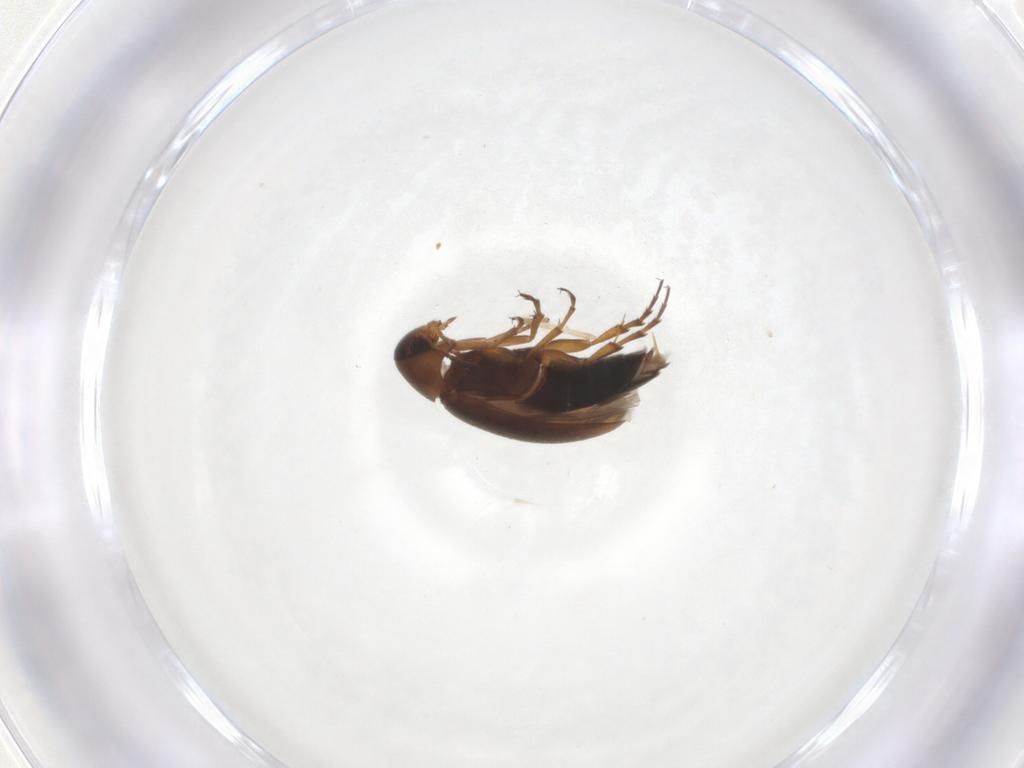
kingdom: Animalia
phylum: Arthropoda
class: Insecta
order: Coleoptera
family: Scraptiidae
